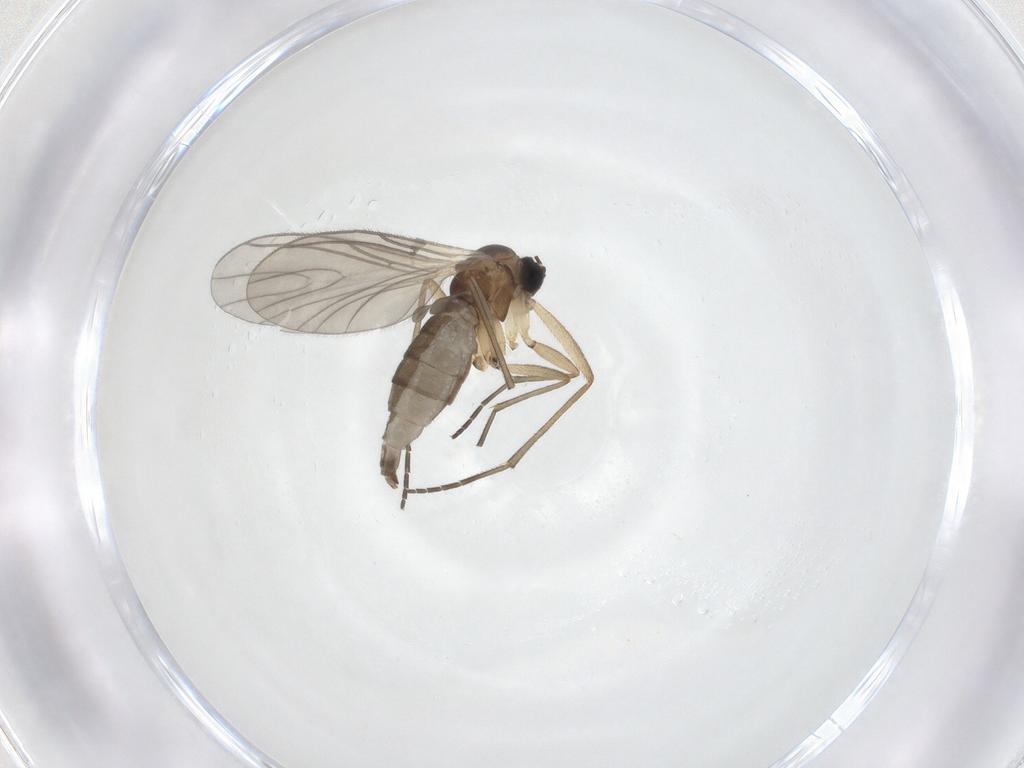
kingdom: Animalia
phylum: Arthropoda
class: Insecta
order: Diptera
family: Sciaridae
